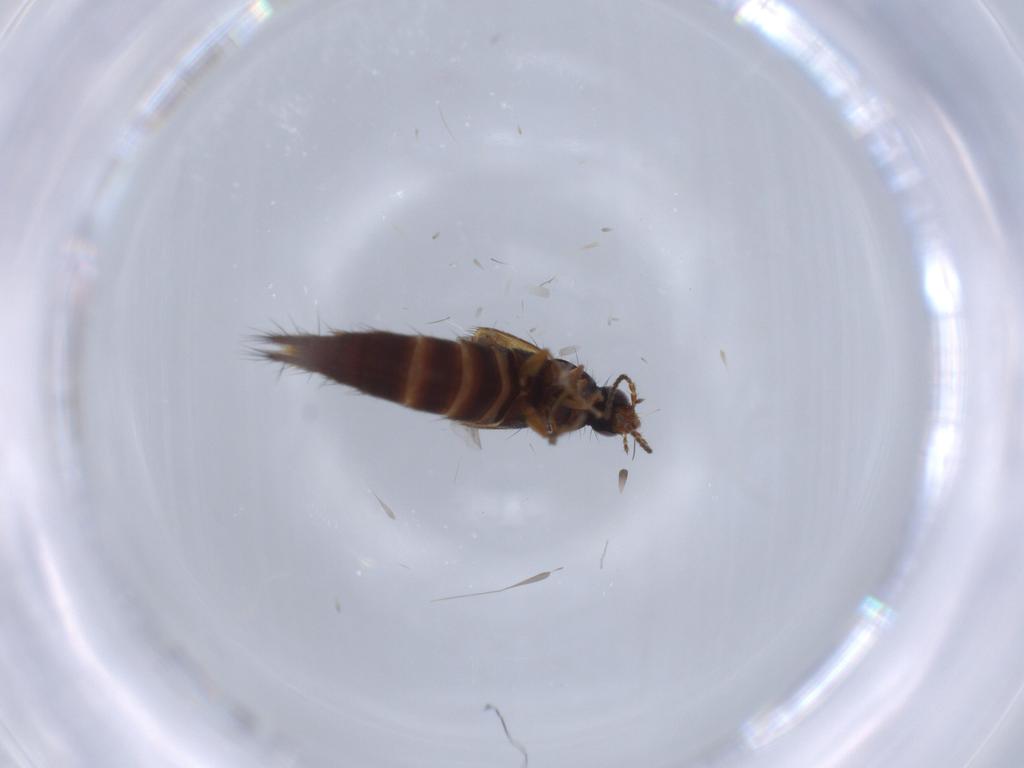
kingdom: Animalia
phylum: Arthropoda
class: Insecta
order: Coleoptera
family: Staphylinidae
